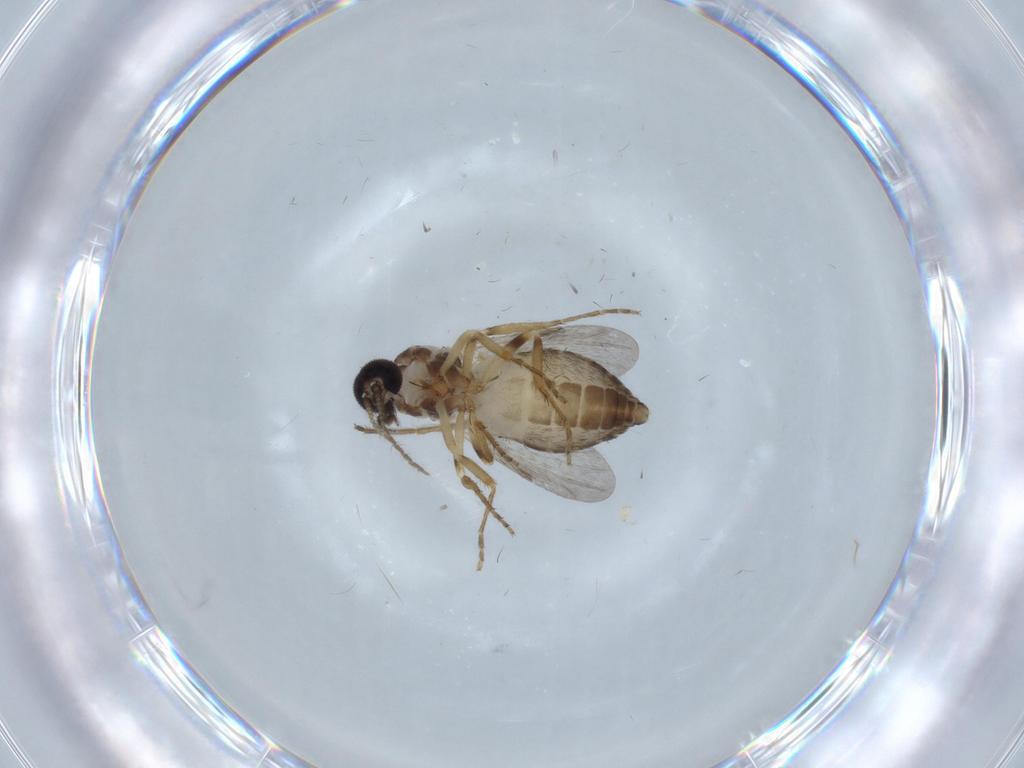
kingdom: Animalia
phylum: Arthropoda
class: Insecta
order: Diptera
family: Ceratopogonidae
